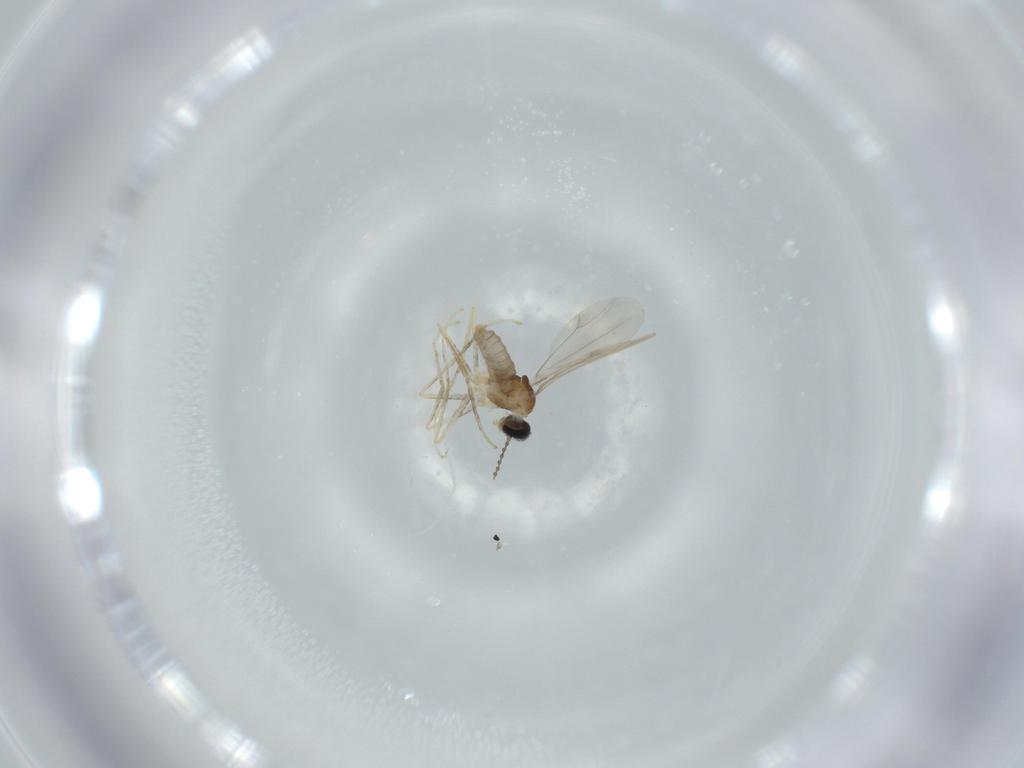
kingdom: Animalia
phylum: Arthropoda
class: Insecta
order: Diptera
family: Cecidomyiidae
